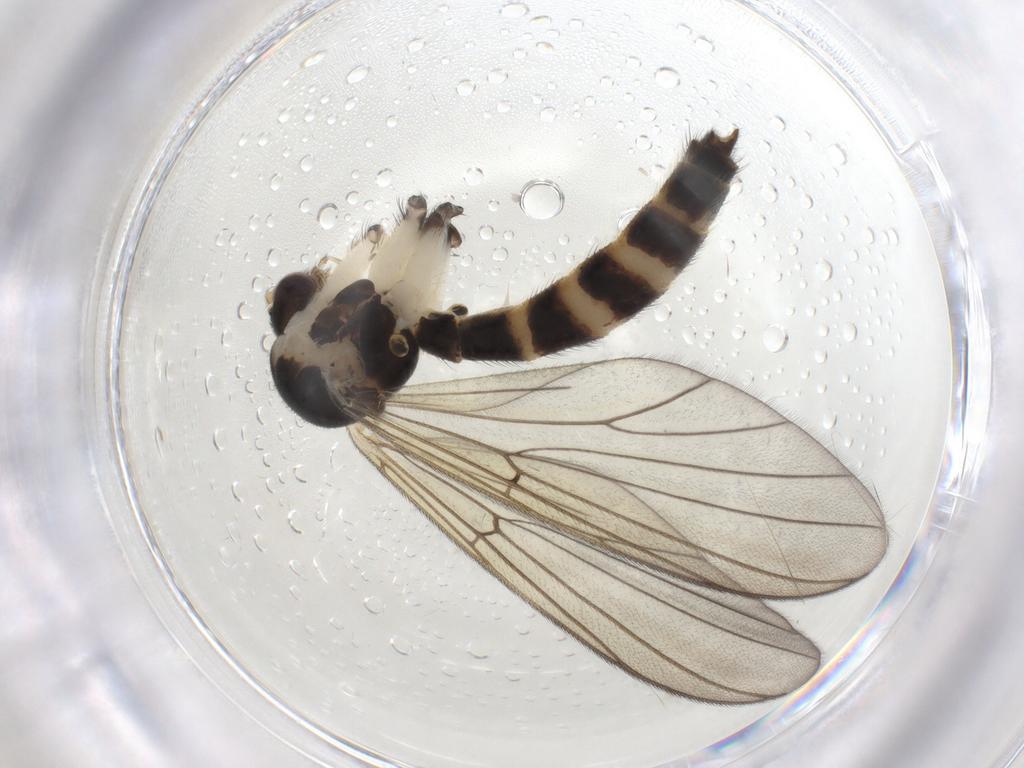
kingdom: Animalia
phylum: Arthropoda
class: Insecta
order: Diptera
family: Mycetophilidae
